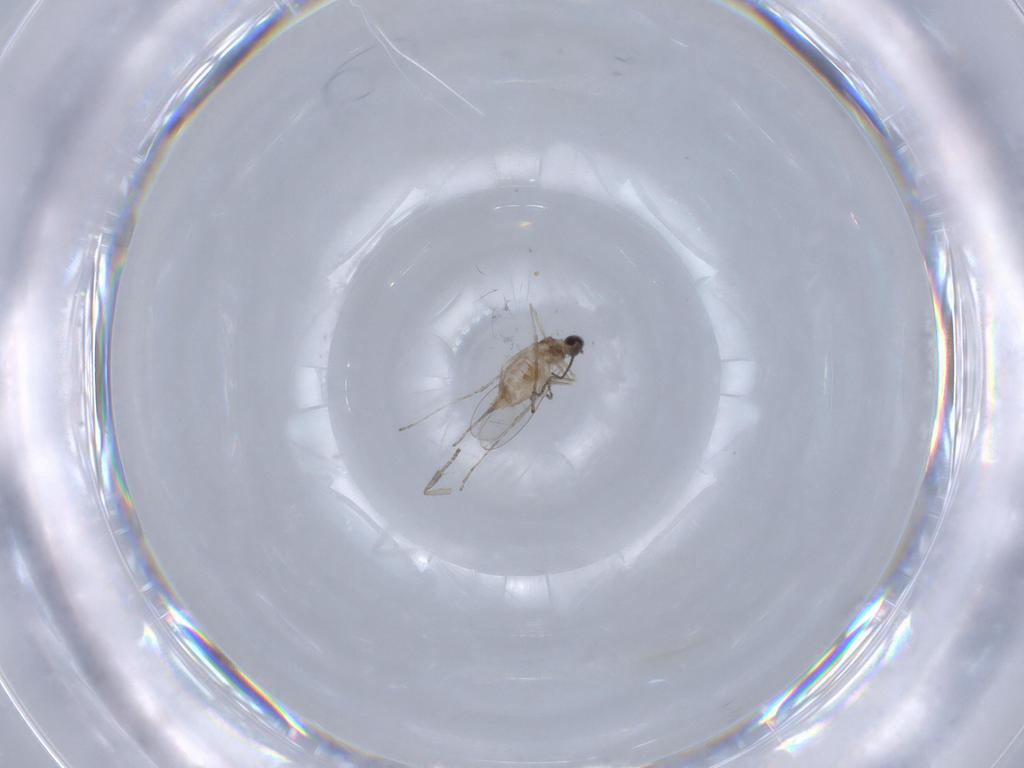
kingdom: Animalia
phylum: Arthropoda
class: Insecta
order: Diptera
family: Cecidomyiidae
